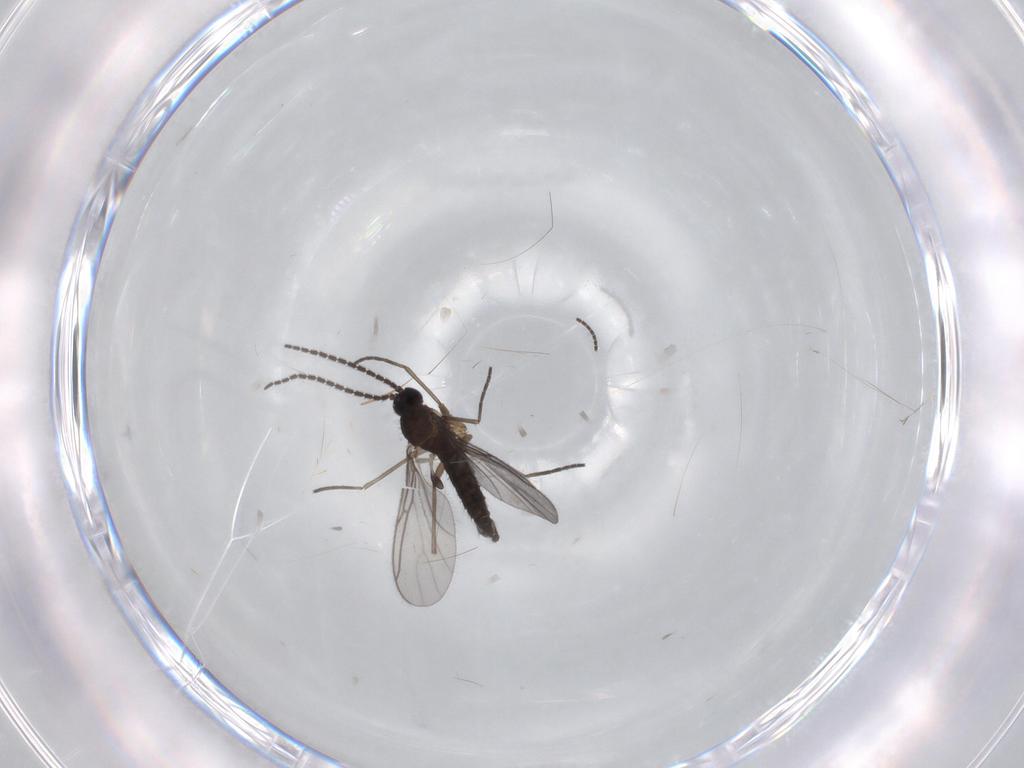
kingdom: Animalia
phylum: Arthropoda
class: Insecta
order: Diptera
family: Sciaridae
